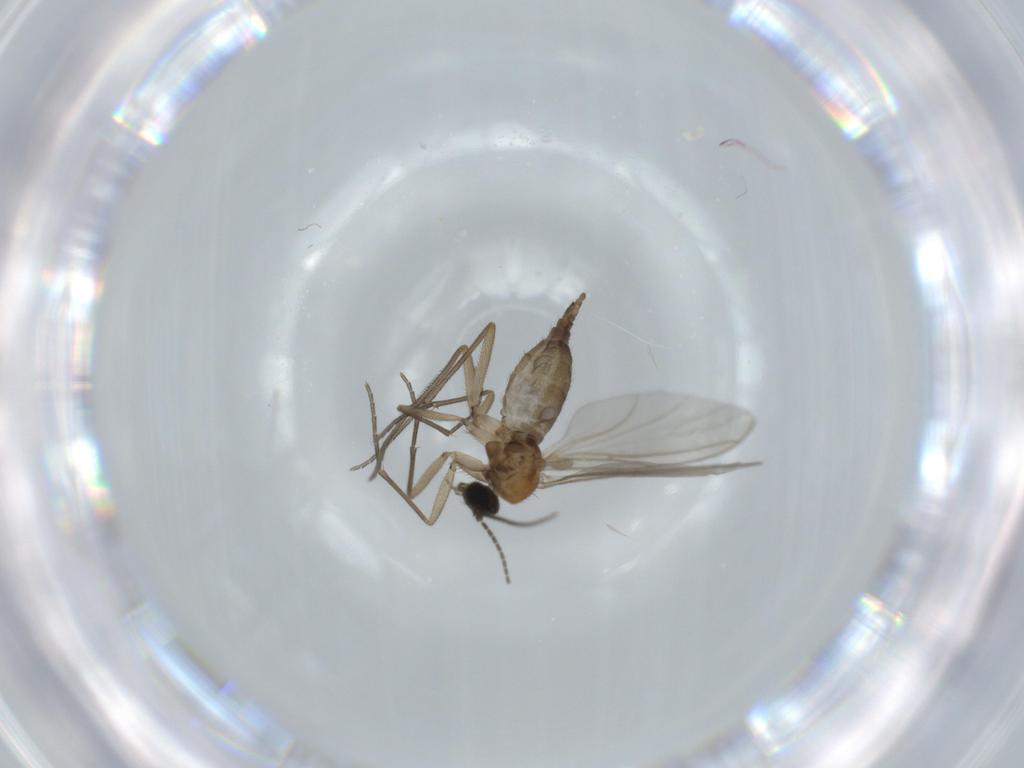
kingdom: Animalia
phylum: Arthropoda
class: Insecta
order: Diptera
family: Sciaridae
